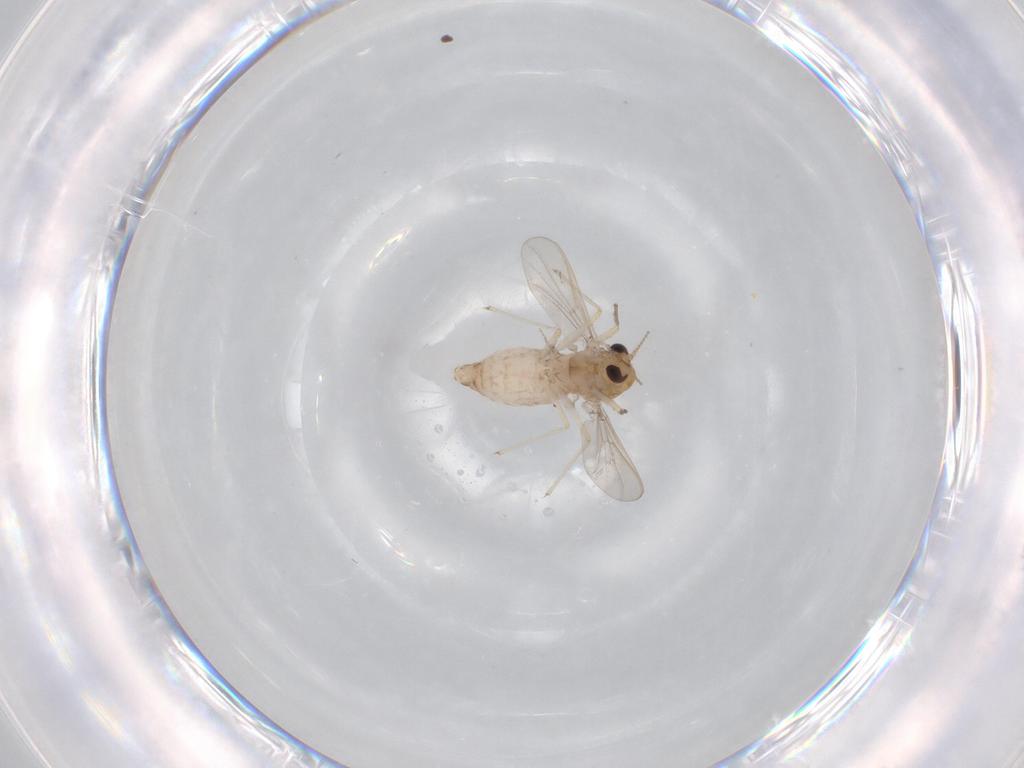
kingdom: Animalia
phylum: Arthropoda
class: Insecta
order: Diptera
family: Chironomidae
